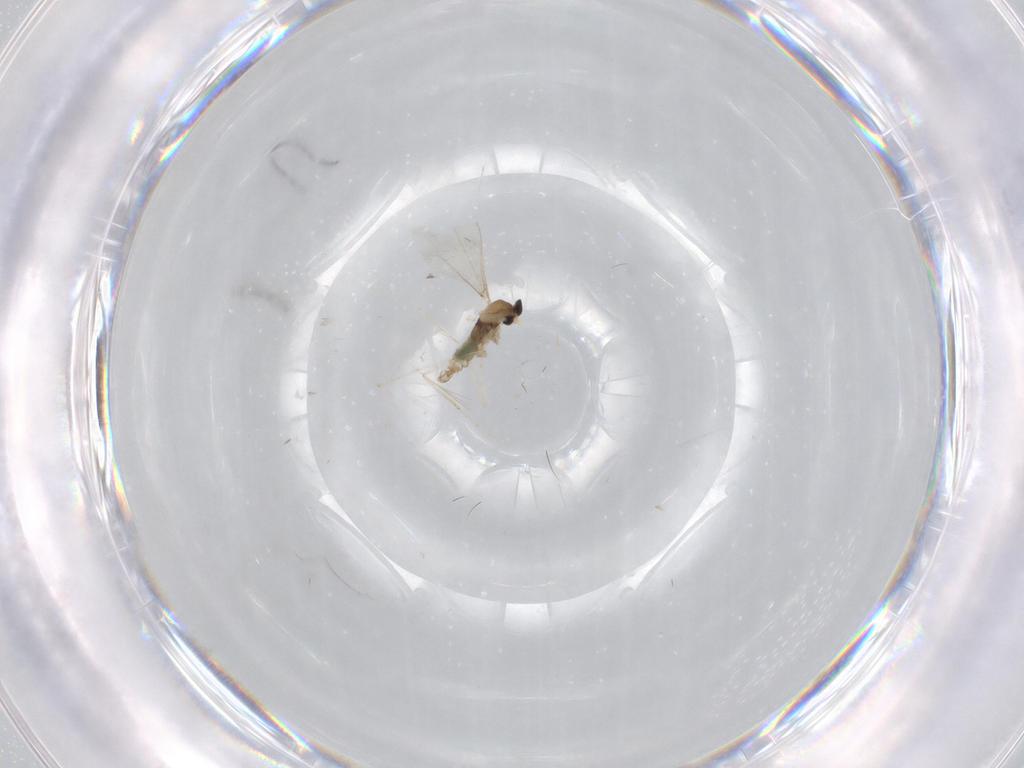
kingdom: Animalia
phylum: Arthropoda
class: Insecta
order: Diptera
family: Cecidomyiidae
